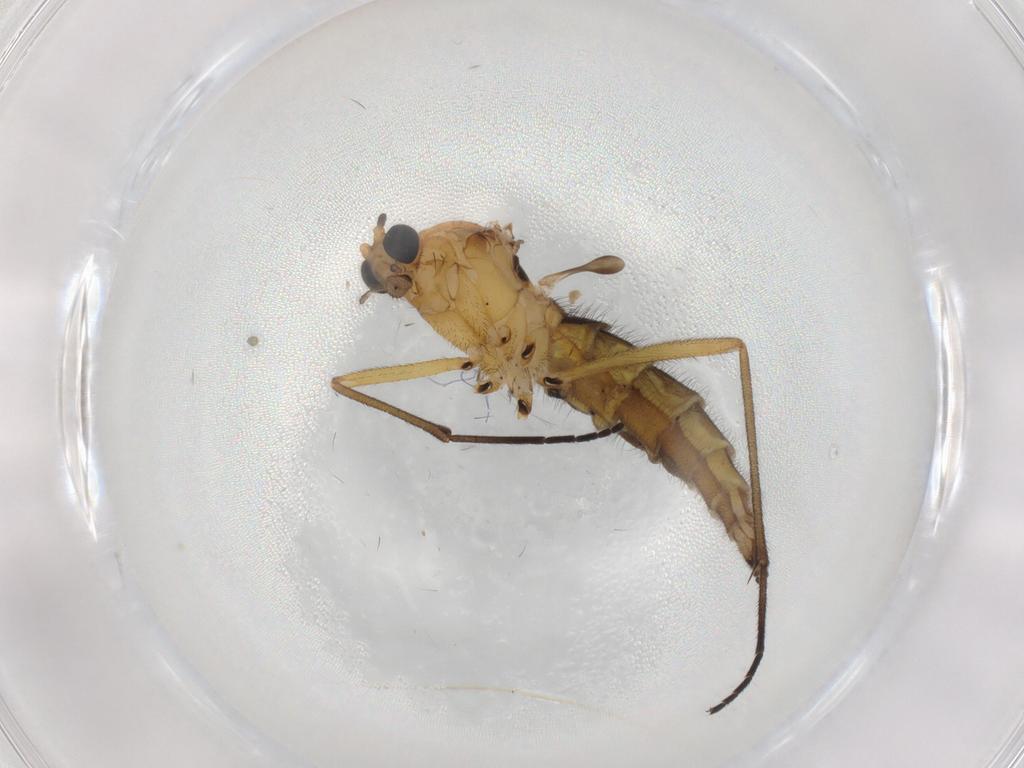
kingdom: Animalia
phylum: Arthropoda
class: Insecta
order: Diptera
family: Sciaridae
